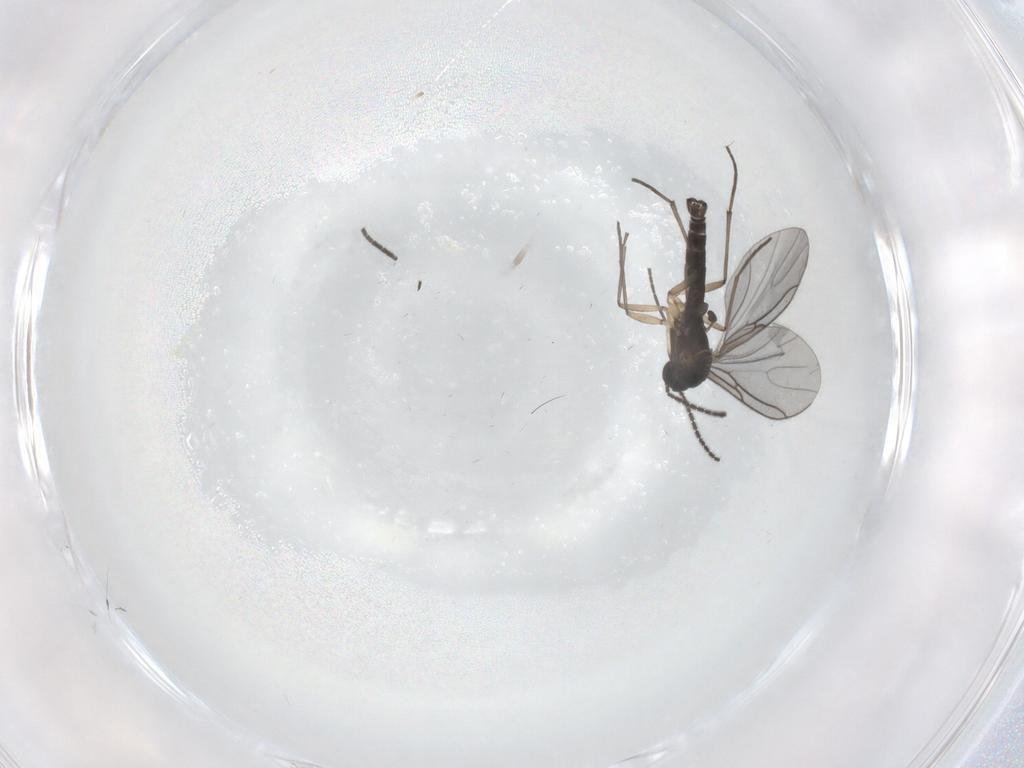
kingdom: Animalia
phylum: Arthropoda
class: Insecta
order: Diptera
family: Sciaridae
